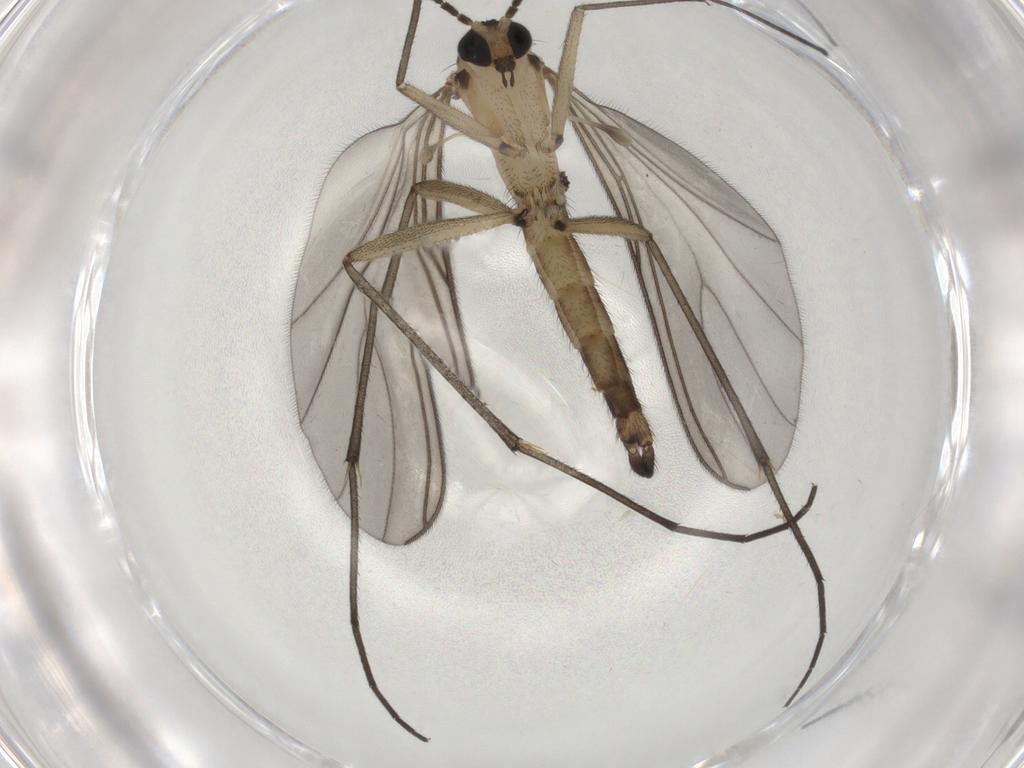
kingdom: Animalia
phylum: Arthropoda
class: Insecta
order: Diptera
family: Sciaridae
